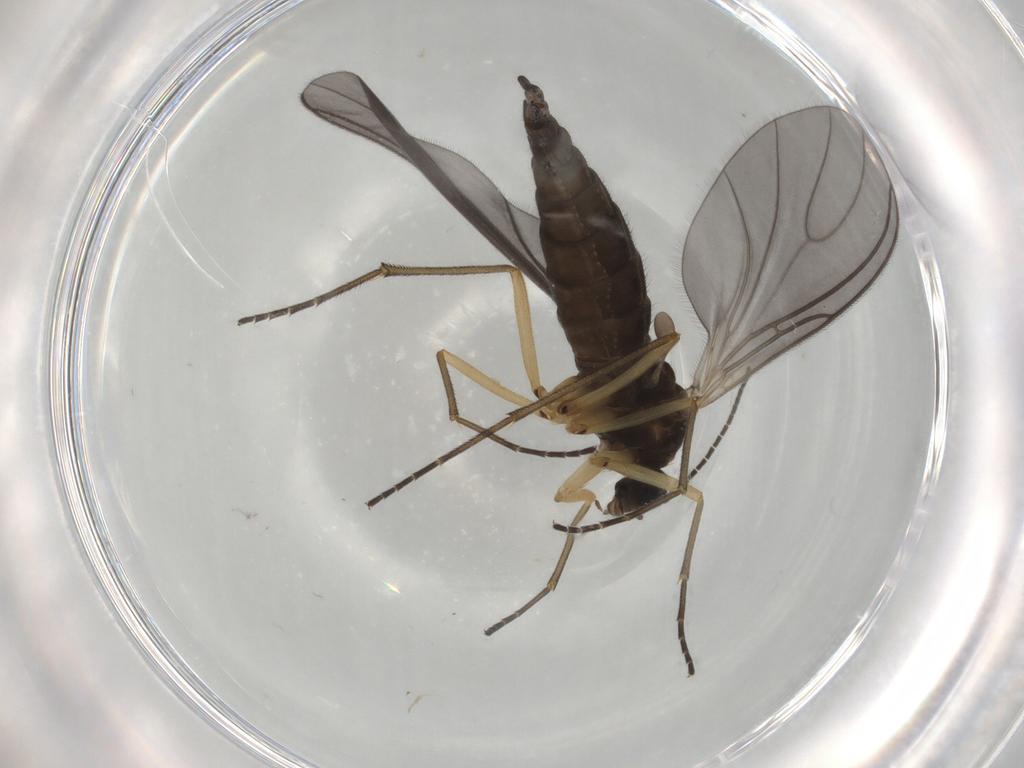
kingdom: Animalia
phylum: Arthropoda
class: Insecta
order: Diptera
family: Sciaridae
